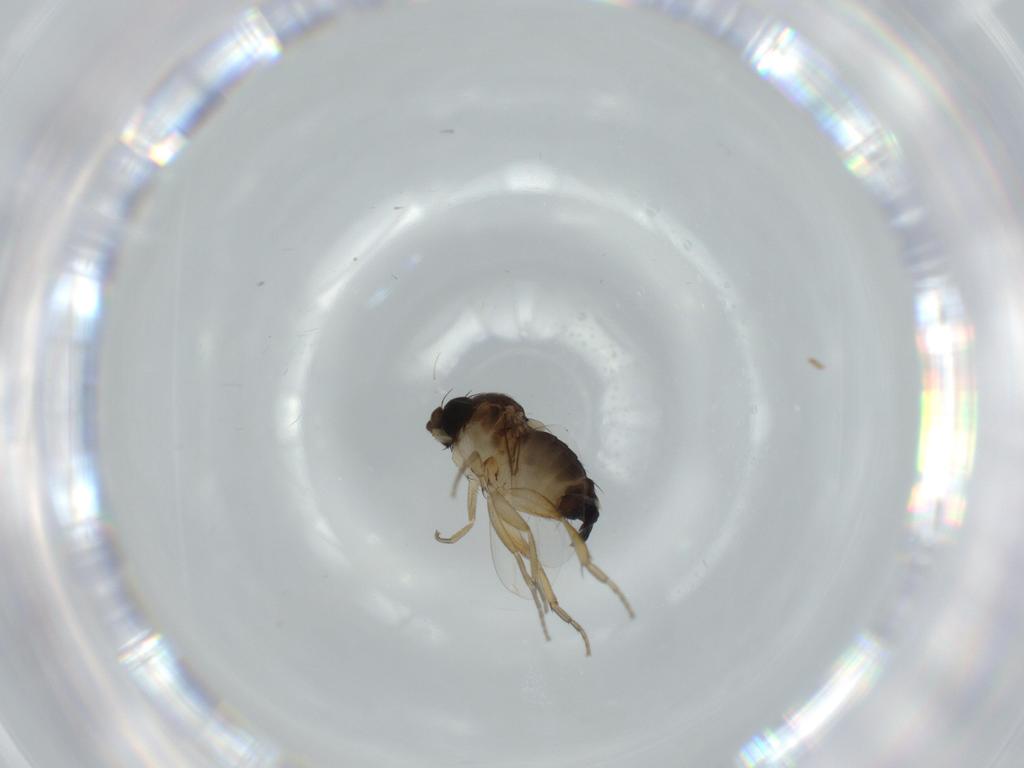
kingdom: Animalia
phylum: Arthropoda
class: Insecta
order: Diptera
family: Phoridae
